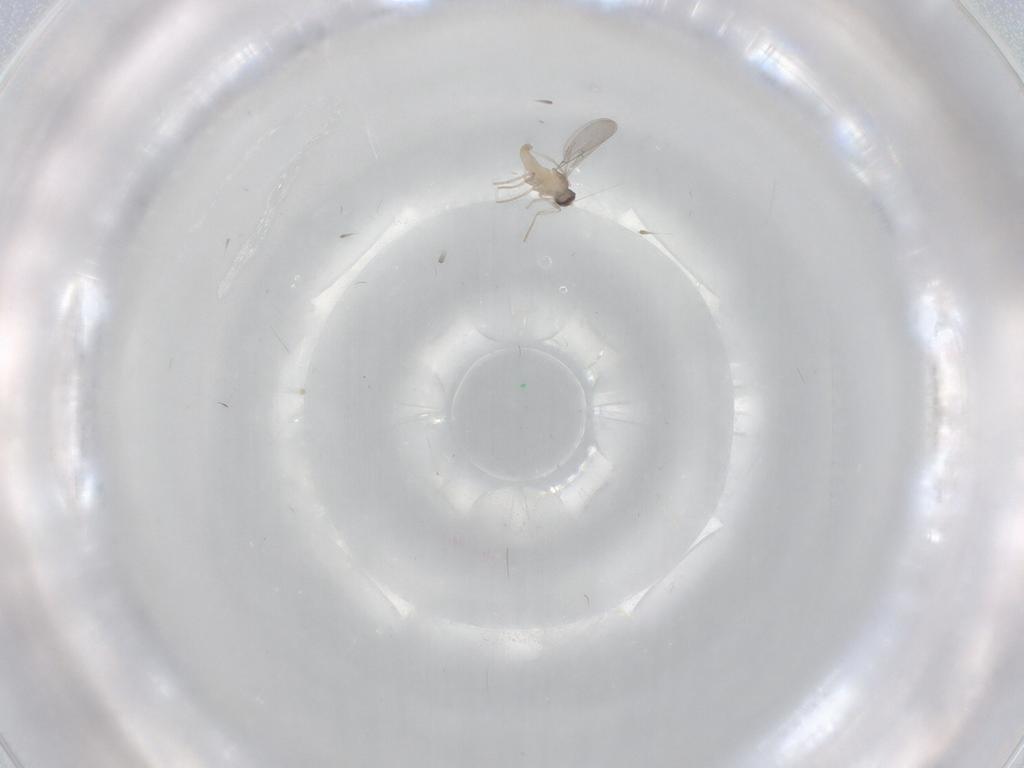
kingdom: Animalia
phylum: Arthropoda
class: Insecta
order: Diptera
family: Phoridae
